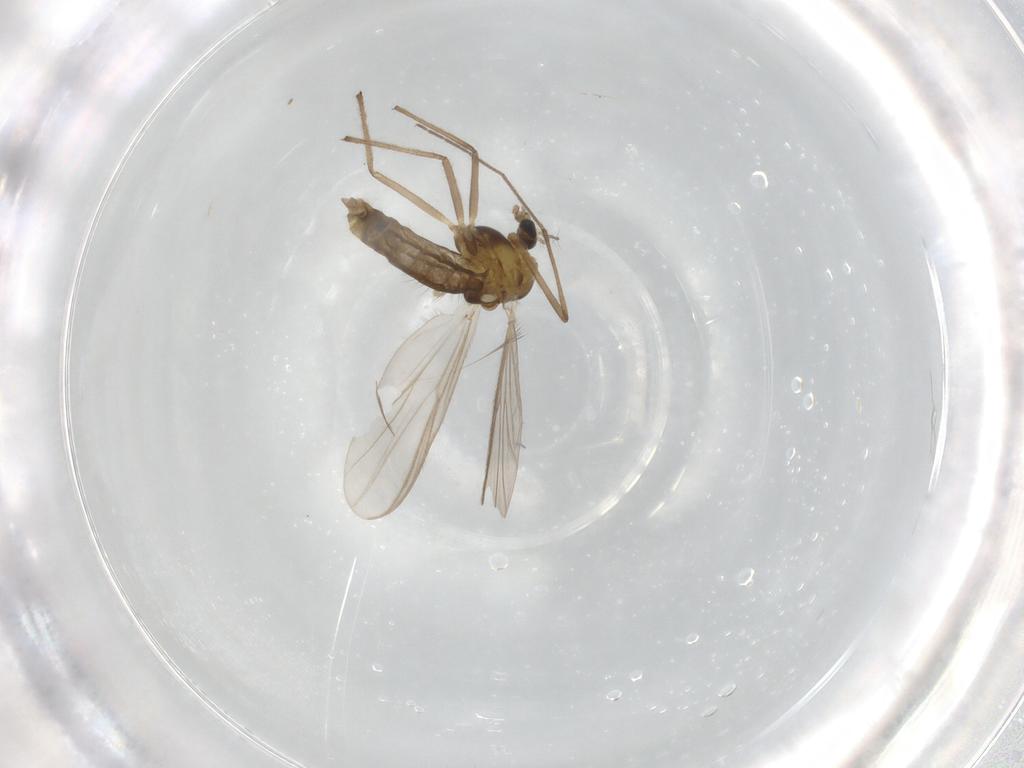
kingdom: Animalia
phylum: Arthropoda
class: Insecta
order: Diptera
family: Chironomidae
